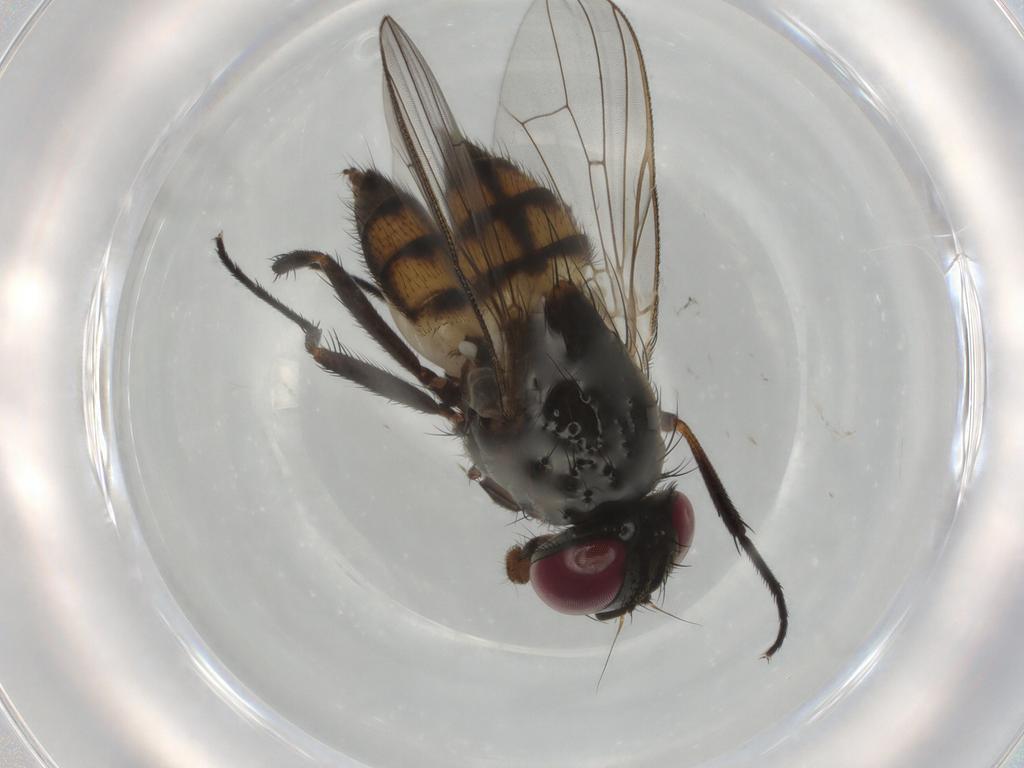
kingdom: Animalia
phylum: Arthropoda
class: Insecta
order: Diptera
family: Fannia
